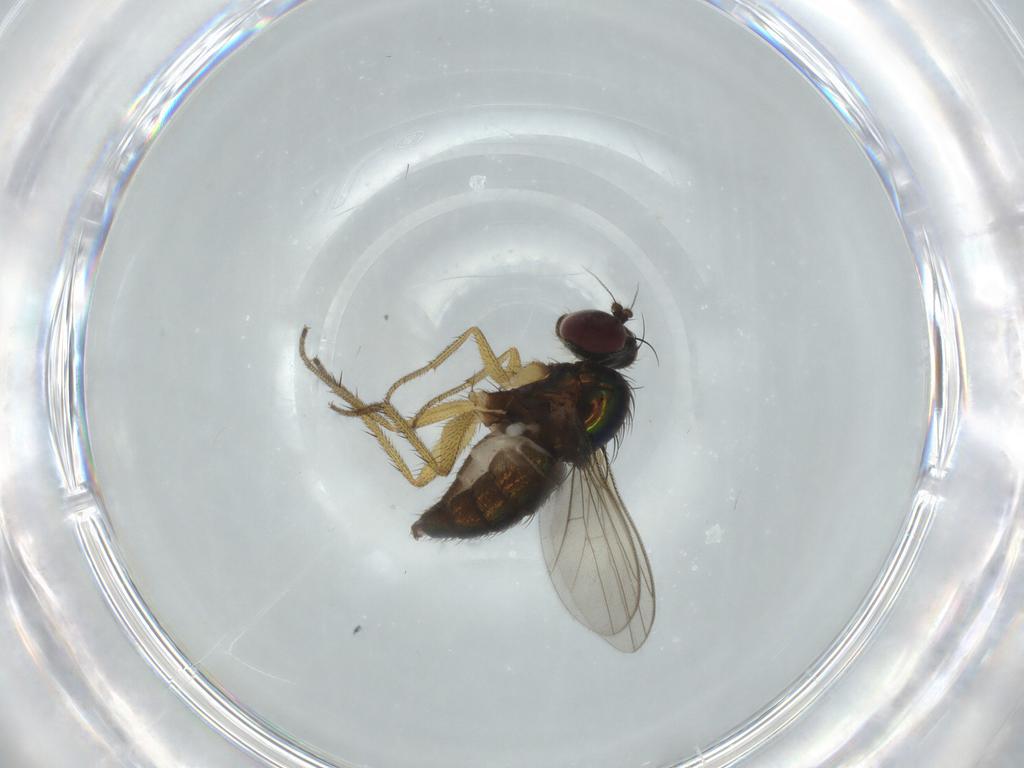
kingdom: Animalia
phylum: Arthropoda
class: Insecta
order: Diptera
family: Dolichopodidae
